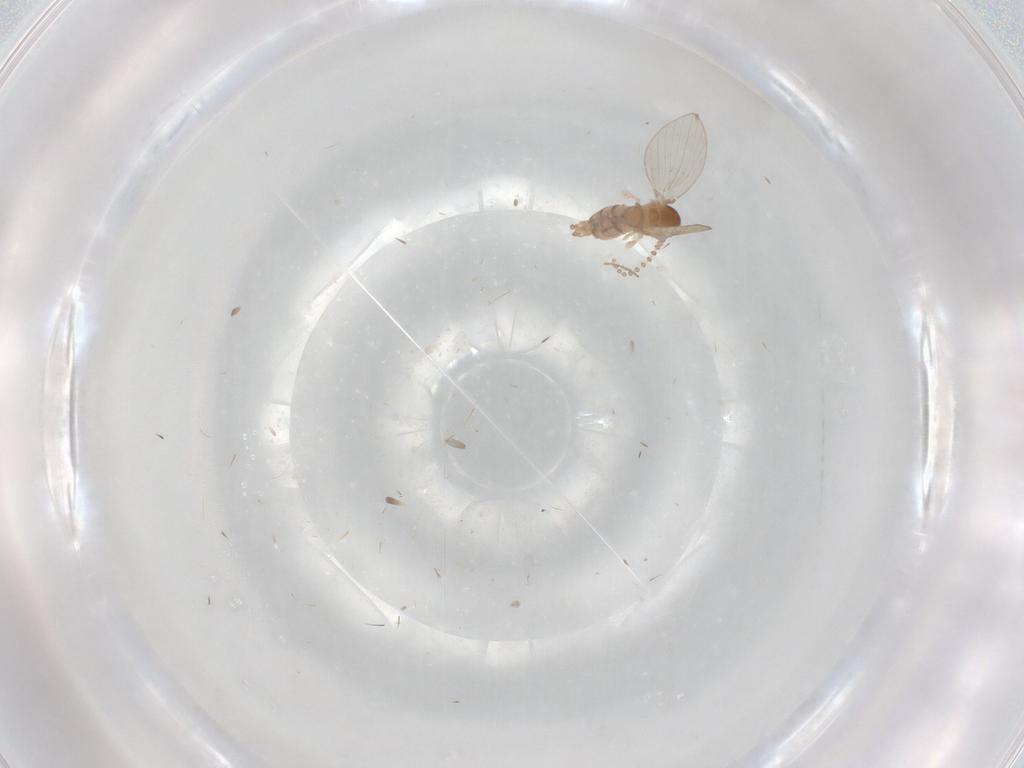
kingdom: Animalia
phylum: Arthropoda
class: Insecta
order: Diptera
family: Psychodidae
